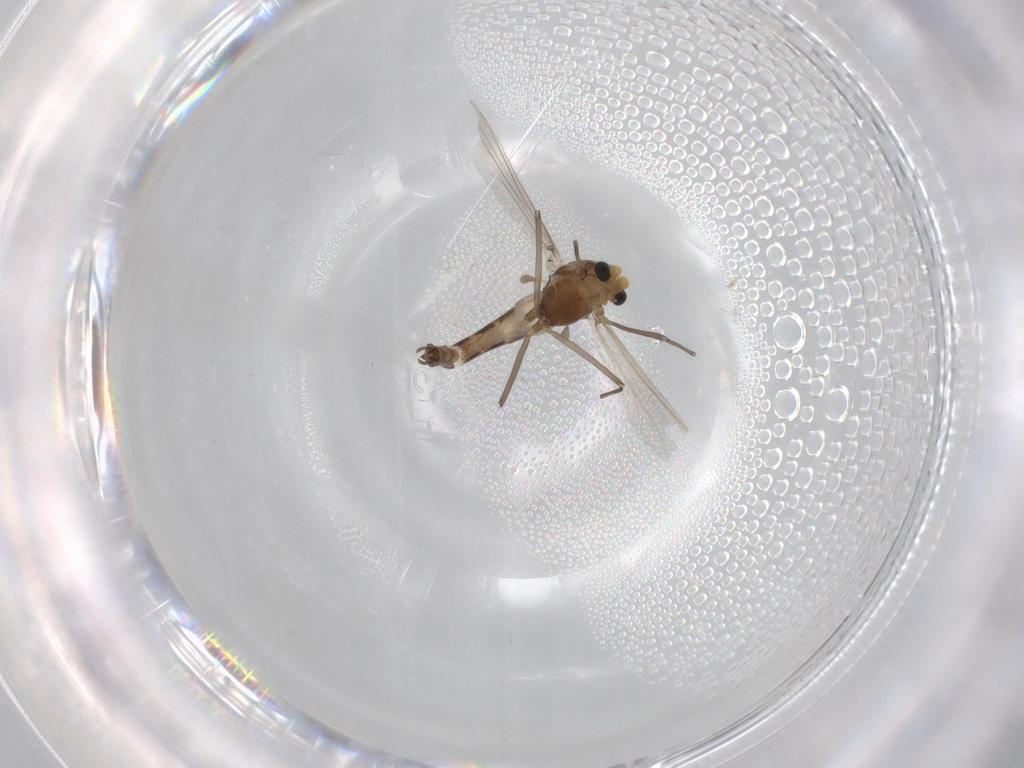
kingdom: Animalia
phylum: Arthropoda
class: Insecta
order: Diptera
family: Chironomidae
